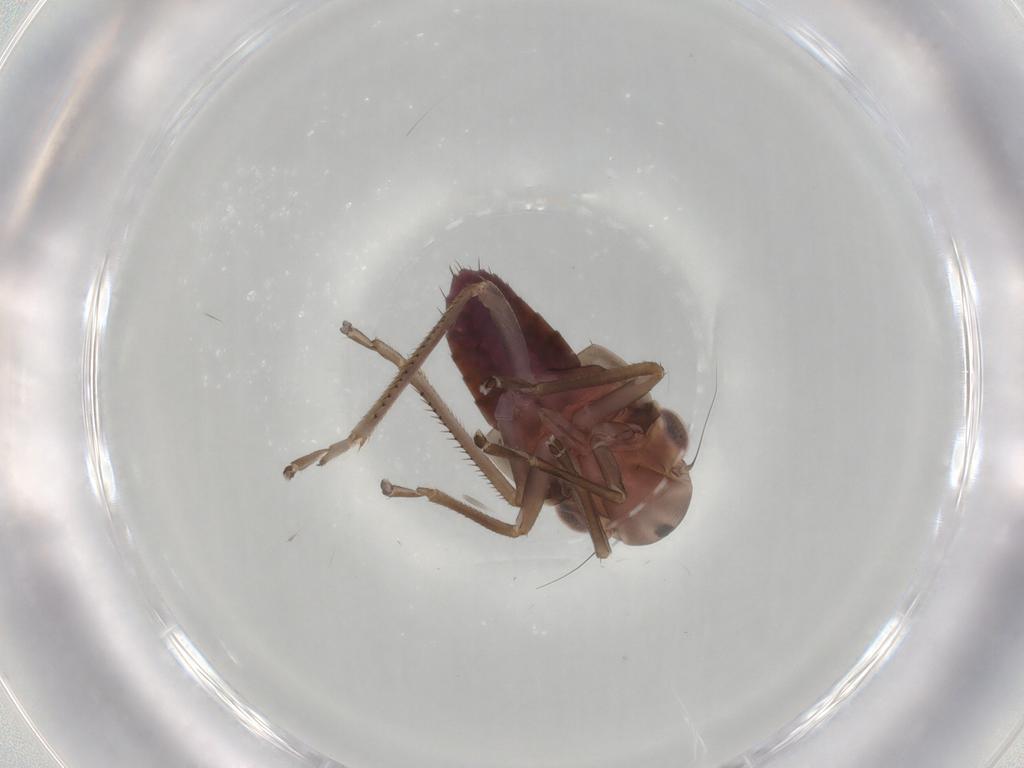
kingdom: Animalia
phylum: Arthropoda
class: Insecta
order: Hemiptera
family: Cicadellidae
